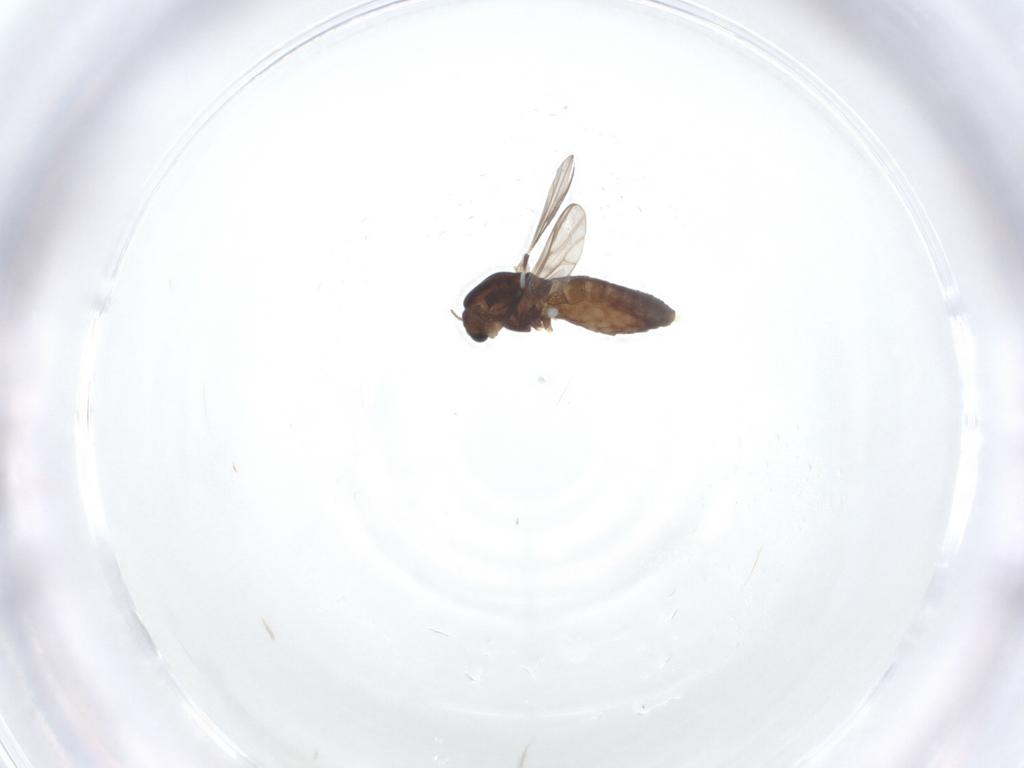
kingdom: Animalia
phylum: Arthropoda
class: Insecta
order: Diptera
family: Chironomidae
